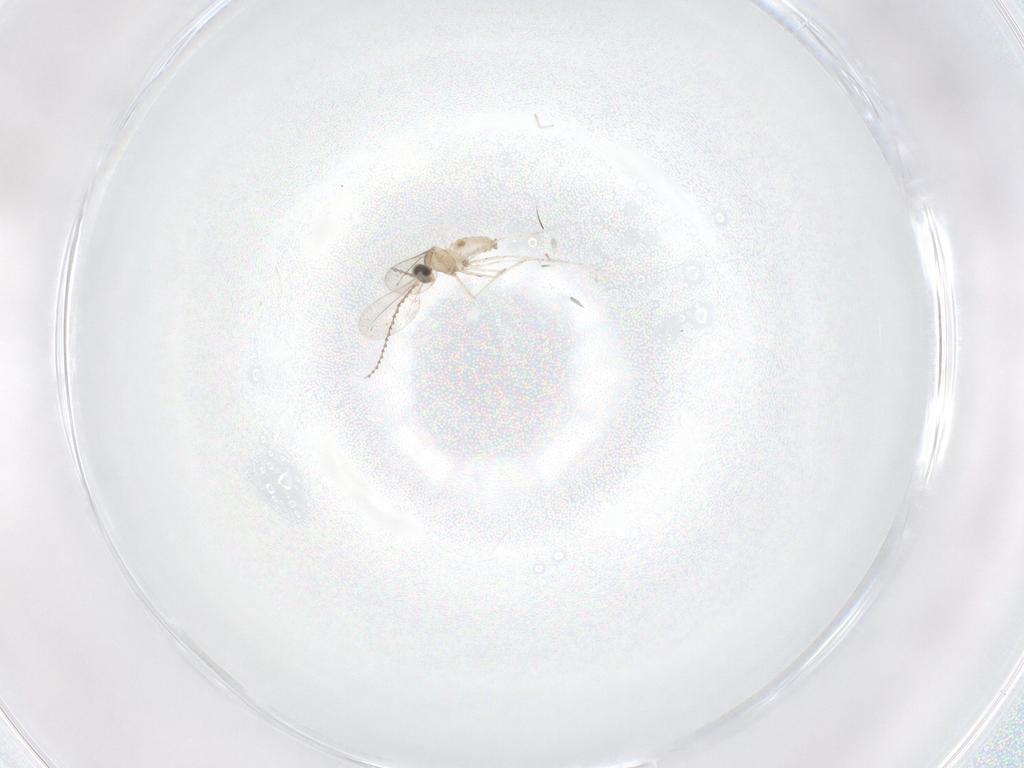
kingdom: Animalia
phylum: Arthropoda
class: Insecta
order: Diptera
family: Cecidomyiidae
